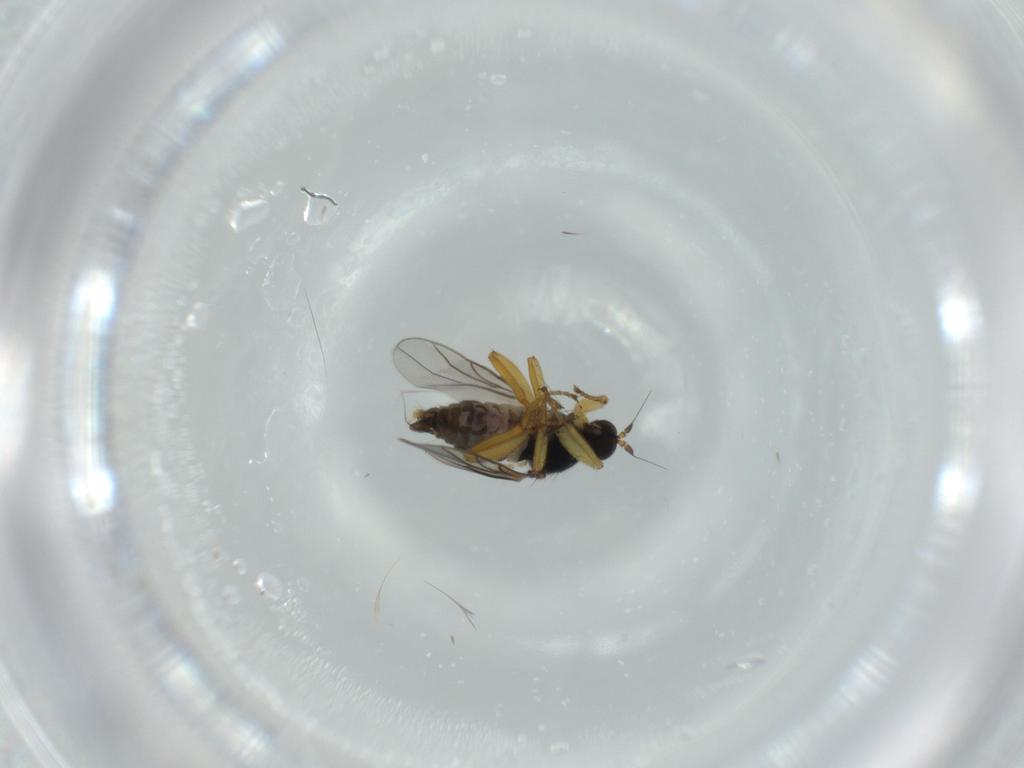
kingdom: Animalia
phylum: Arthropoda
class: Insecta
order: Diptera
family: Hybotidae
